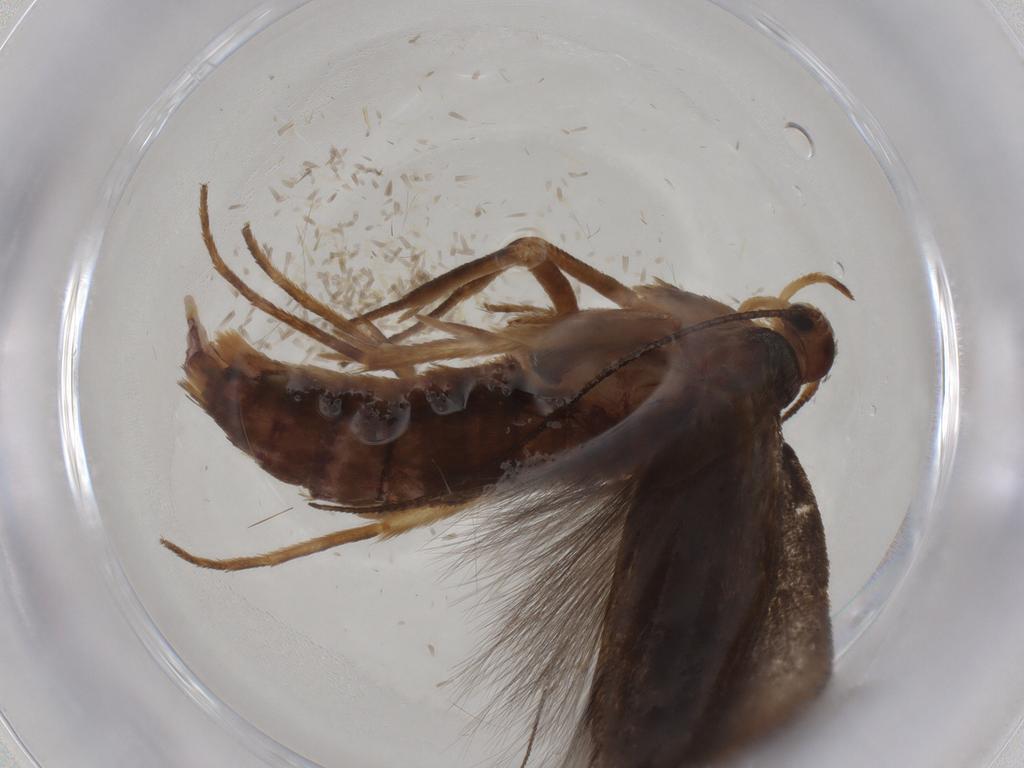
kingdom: Animalia
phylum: Arthropoda
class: Insecta
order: Lepidoptera
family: Scythrididae
